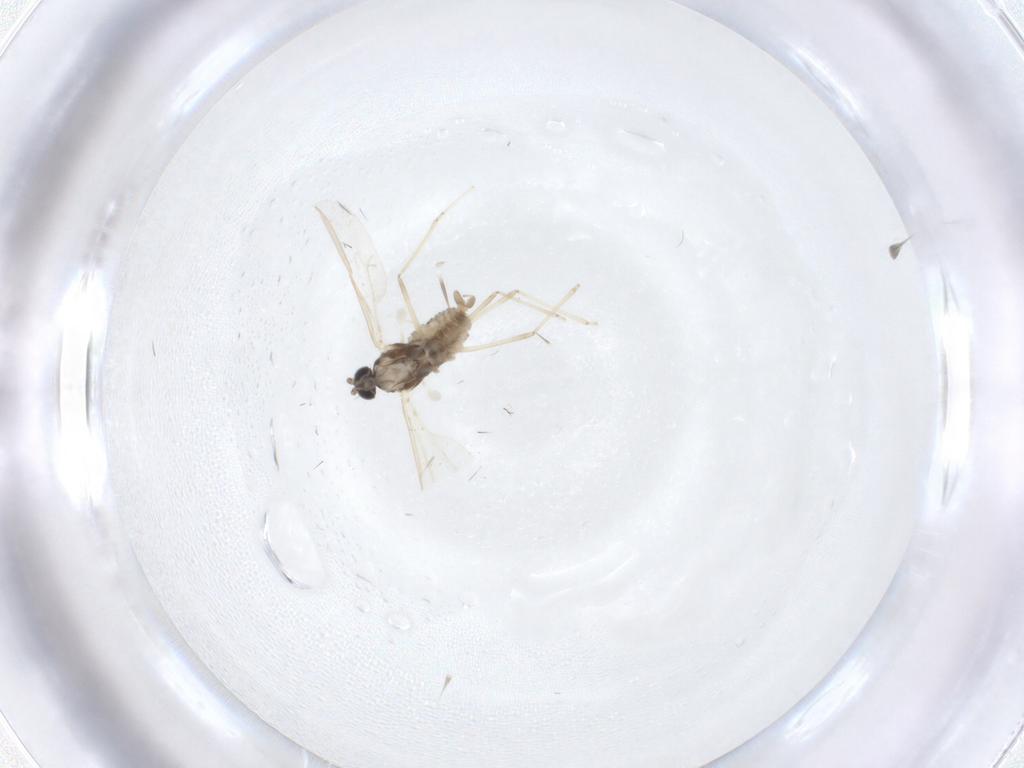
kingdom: Animalia
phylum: Arthropoda
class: Insecta
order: Diptera
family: Cecidomyiidae
